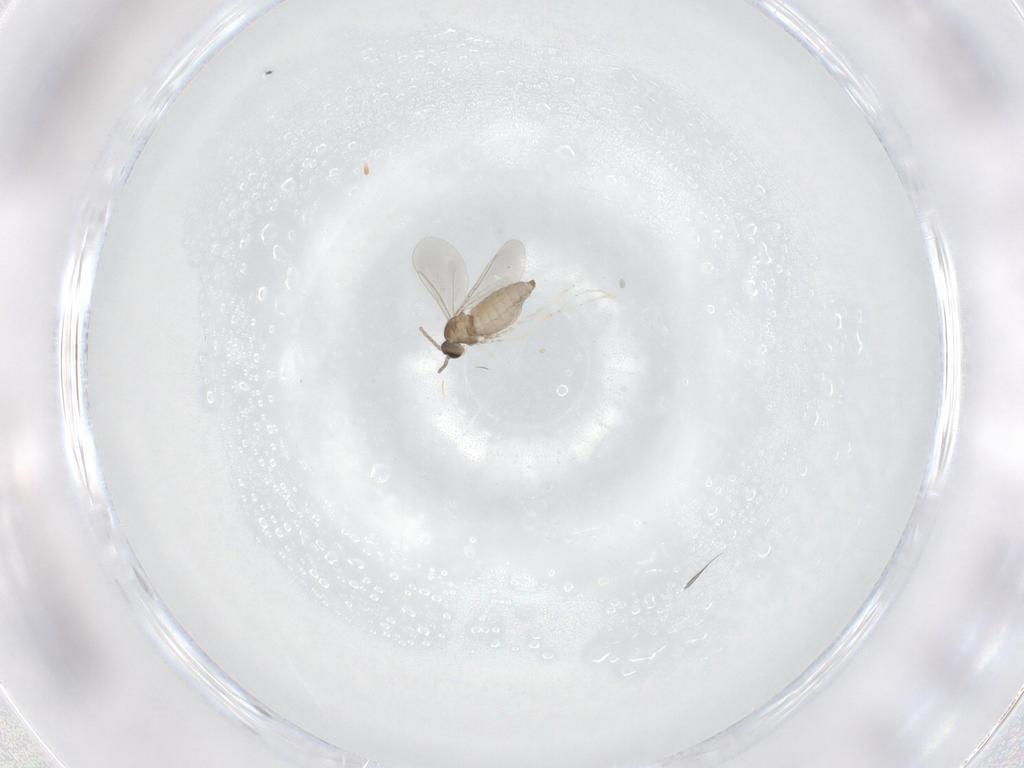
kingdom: Animalia
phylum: Arthropoda
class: Insecta
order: Diptera
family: Cecidomyiidae
